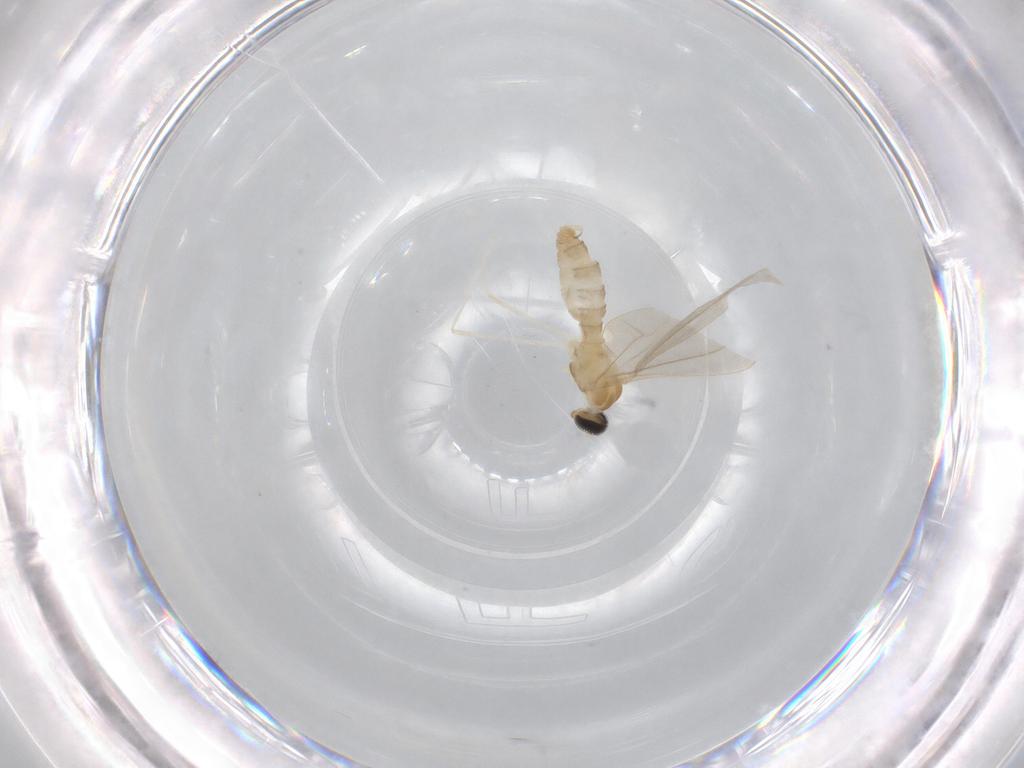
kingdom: Animalia
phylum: Arthropoda
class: Insecta
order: Diptera
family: Cecidomyiidae
